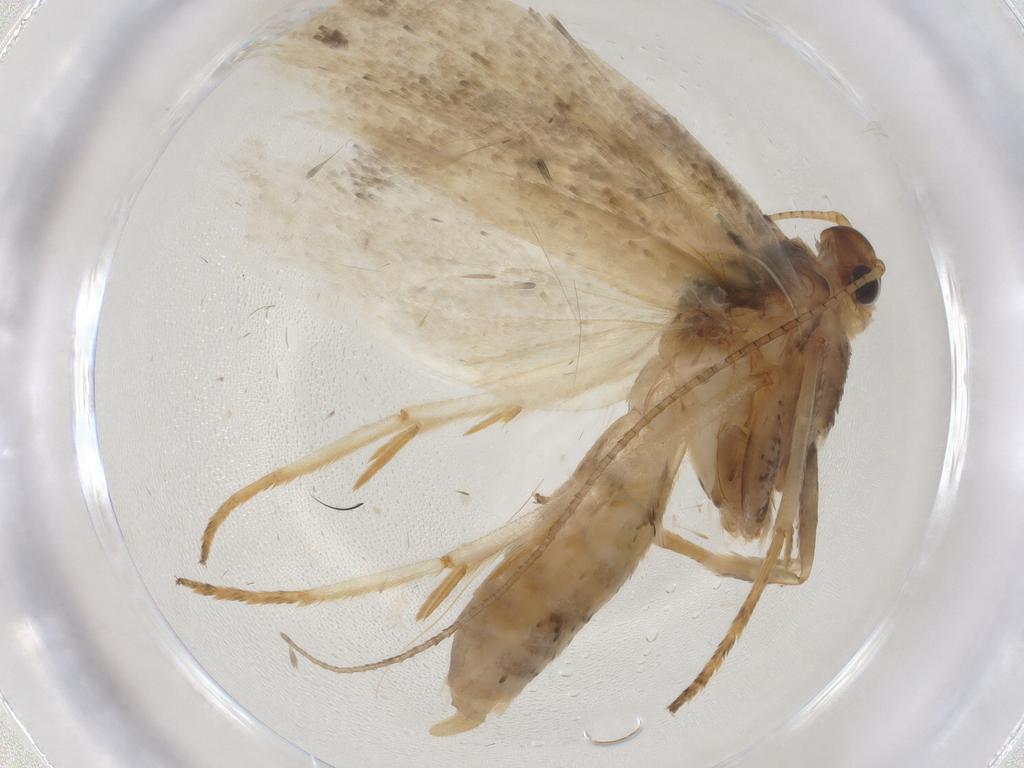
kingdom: Animalia
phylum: Arthropoda
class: Insecta
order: Lepidoptera
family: Depressariidae
